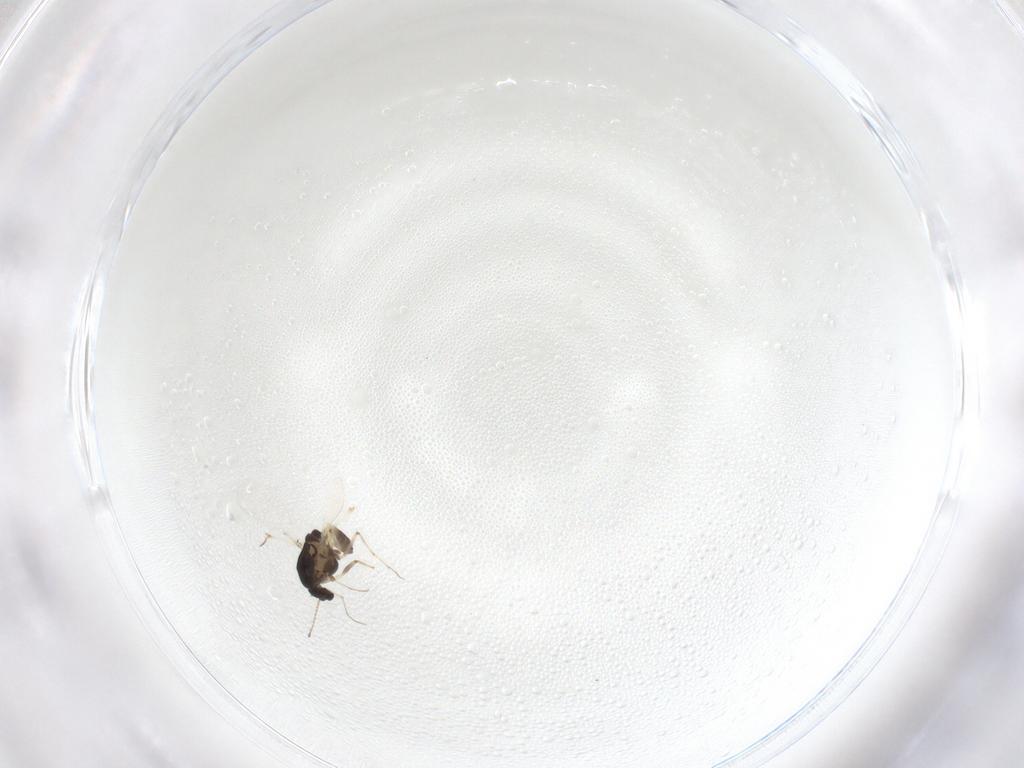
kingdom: Animalia
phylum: Arthropoda
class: Insecta
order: Diptera
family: Chironomidae
